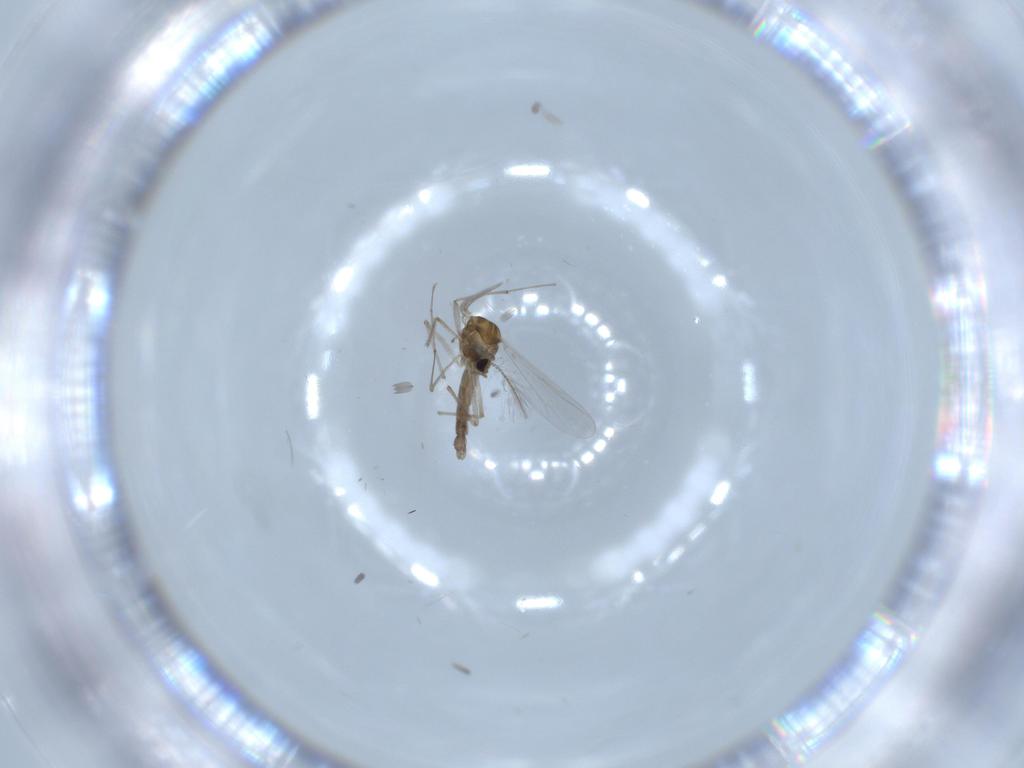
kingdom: Animalia
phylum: Arthropoda
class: Insecta
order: Diptera
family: Chironomidae
